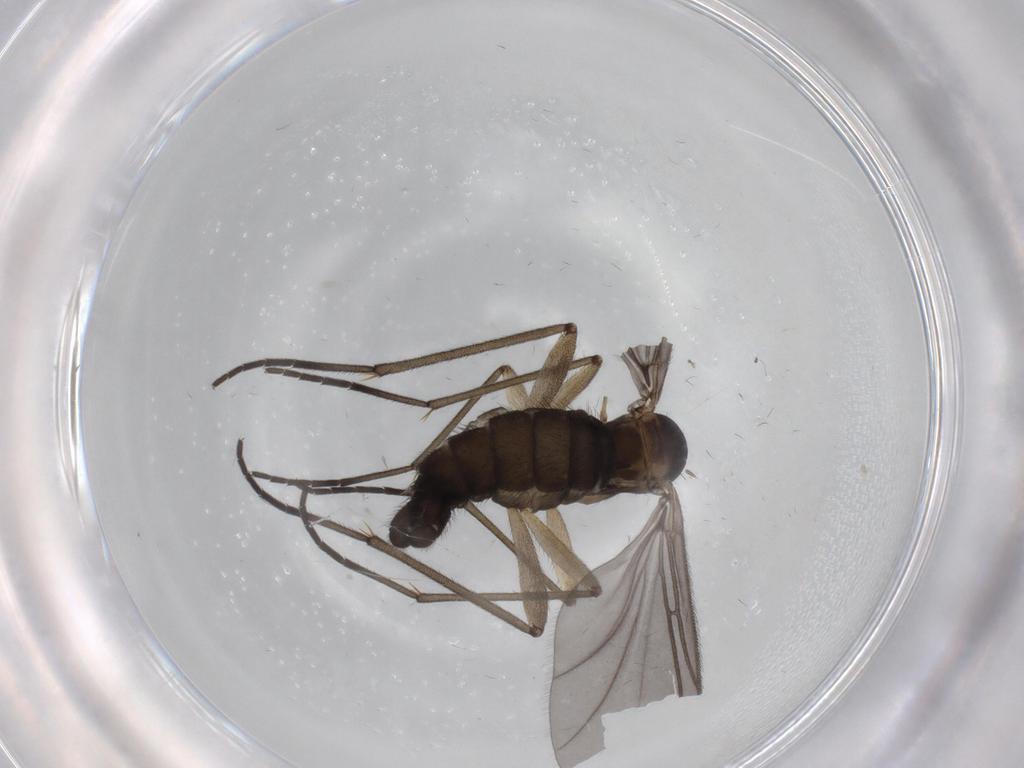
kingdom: Animalia
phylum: Arthropoda
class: Insecta
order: Diptera
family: Sciaridae
